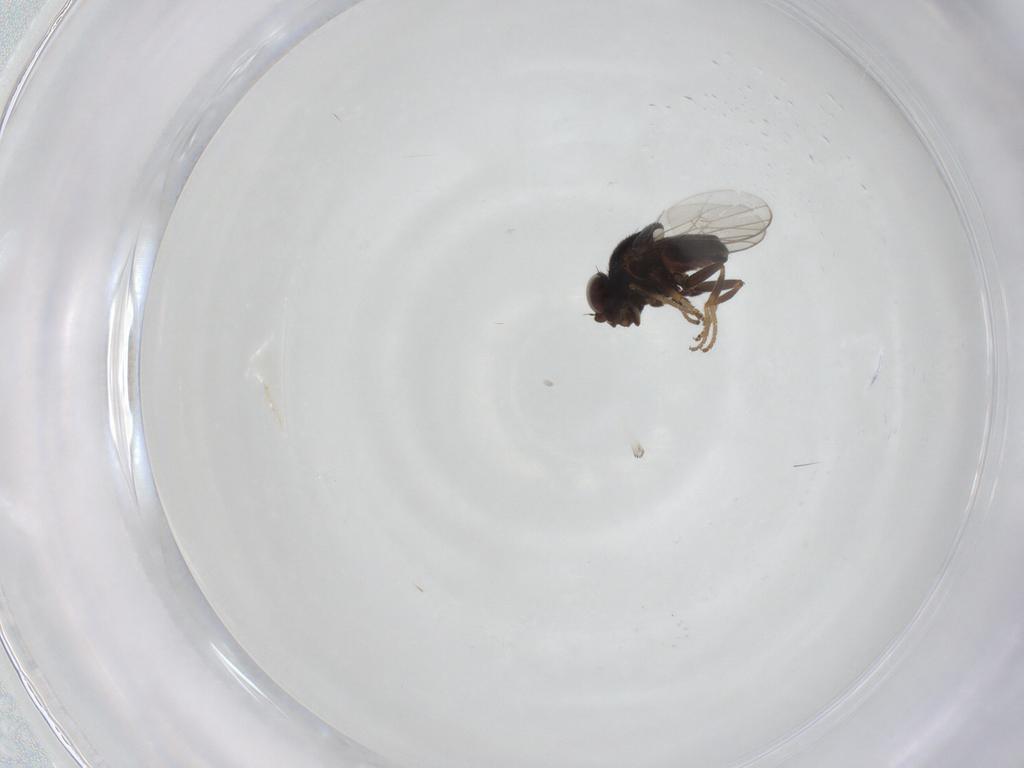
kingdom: Animalia
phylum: Arthropoda
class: Insecta
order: Diptera
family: Chloropidae
